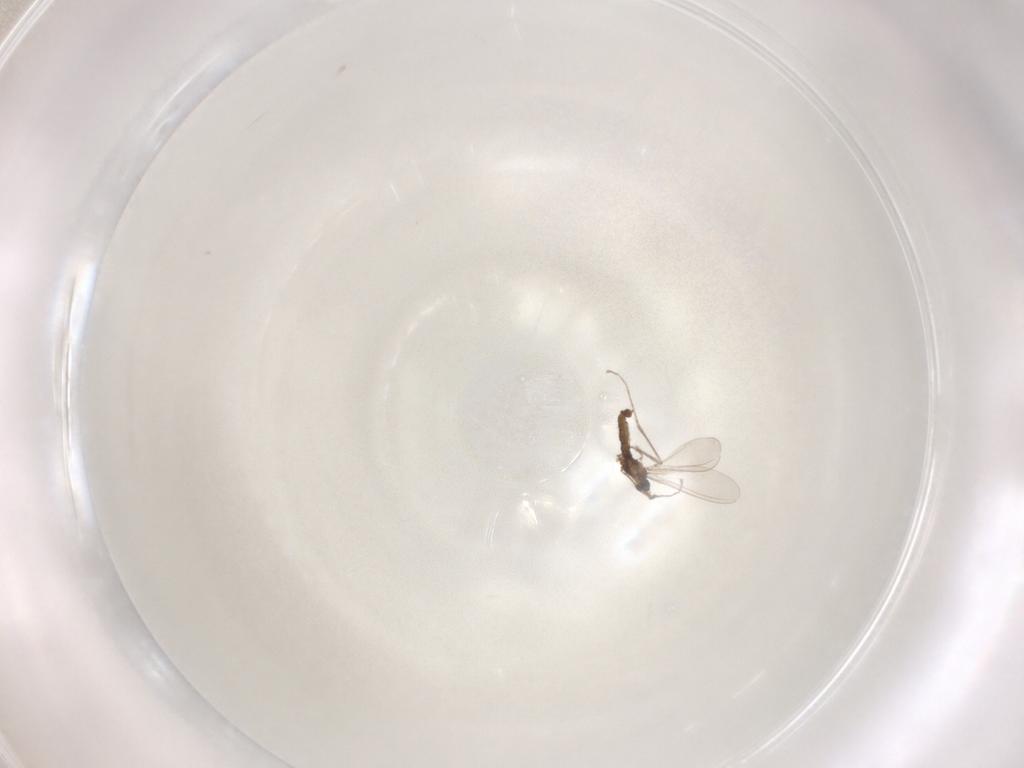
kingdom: Animalia
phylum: Arthropoda
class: Insecta
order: Diptera
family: Cecidomyiidae
